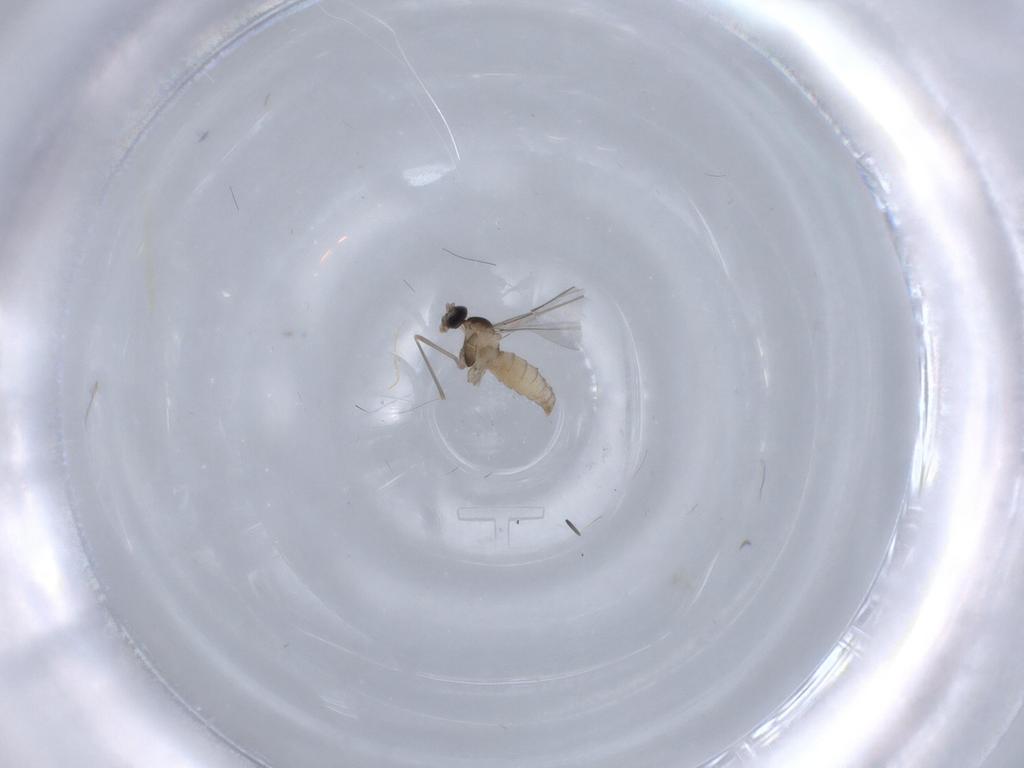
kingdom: Animalia
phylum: Arthropoda
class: Insecta
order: Diptera
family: Cecidomyiidae
